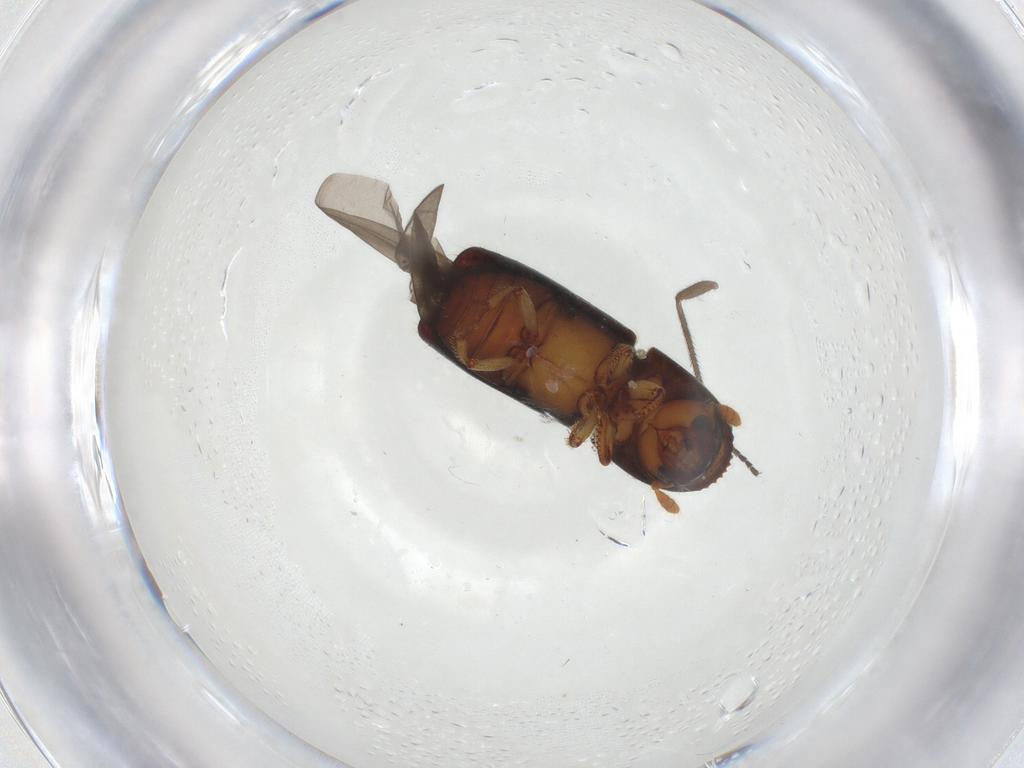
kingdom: Animalia
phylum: Arthropoda
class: Insecta
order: Coleoptera
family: Curculionidae
